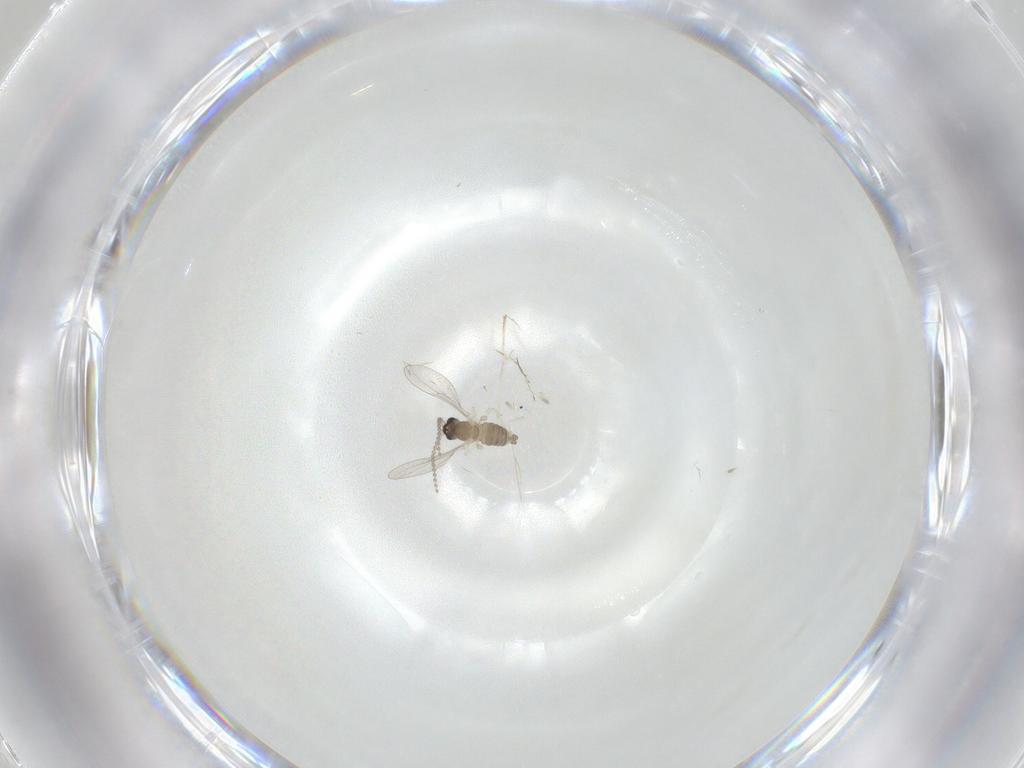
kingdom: Animalia
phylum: Arthropoda
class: Insecta
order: Diptera
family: Cecidomyiidae
